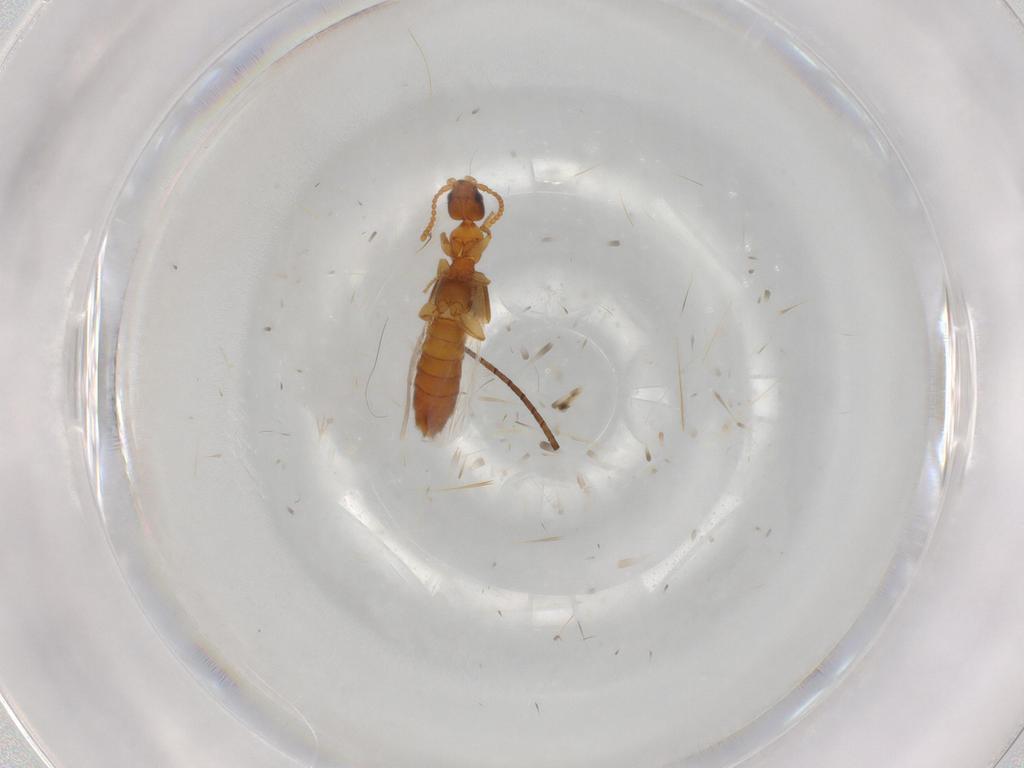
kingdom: Animalia
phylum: Arthropoda
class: Insecta
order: Coleoptera
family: Staphylinidae
